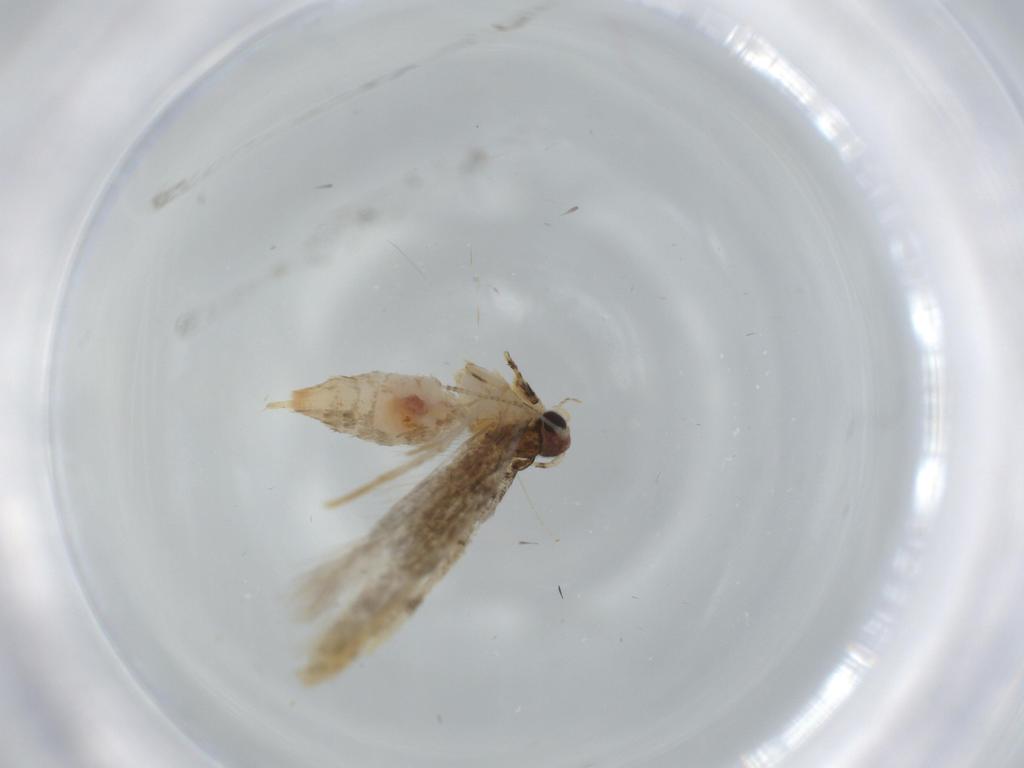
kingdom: Animalia
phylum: Arthropoda
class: Insecta
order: Lepidoptera
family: Tineidae
